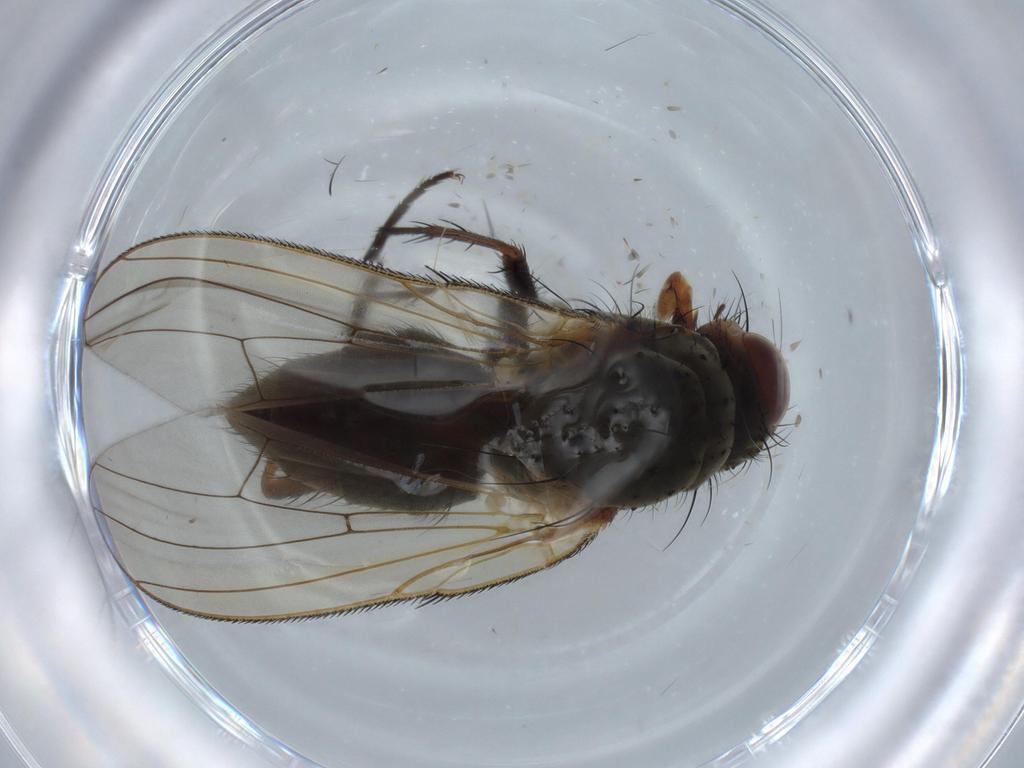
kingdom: Animalia
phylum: Arthropoda
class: Insecta
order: Diptera
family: Anthomyiidae
